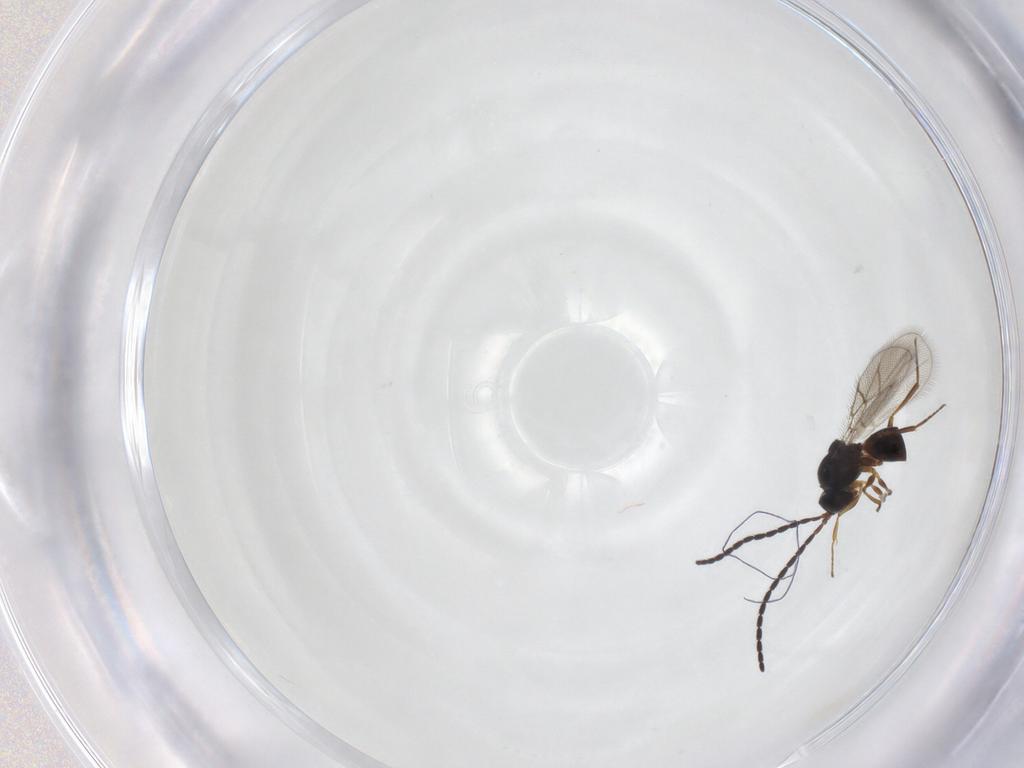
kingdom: Animalia
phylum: Arthropoda
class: Insecta
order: Hymenoptera
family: Figitidae
